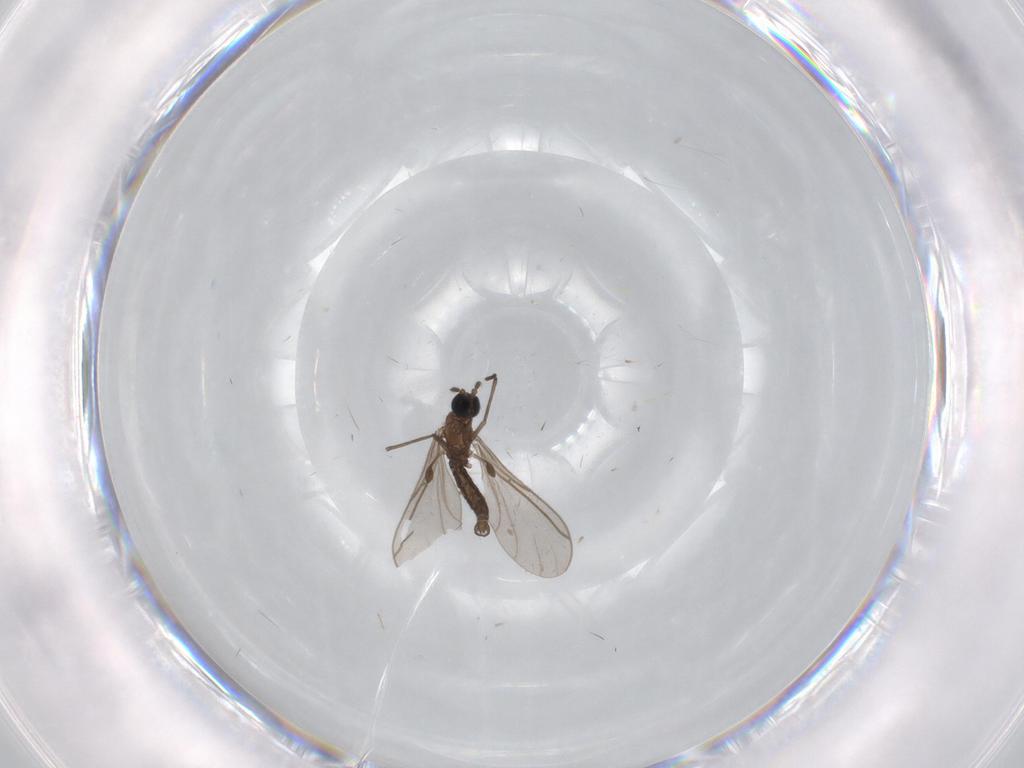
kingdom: Animalia
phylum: Arthropoda
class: Insecta
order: Diptera
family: Chironomidae
